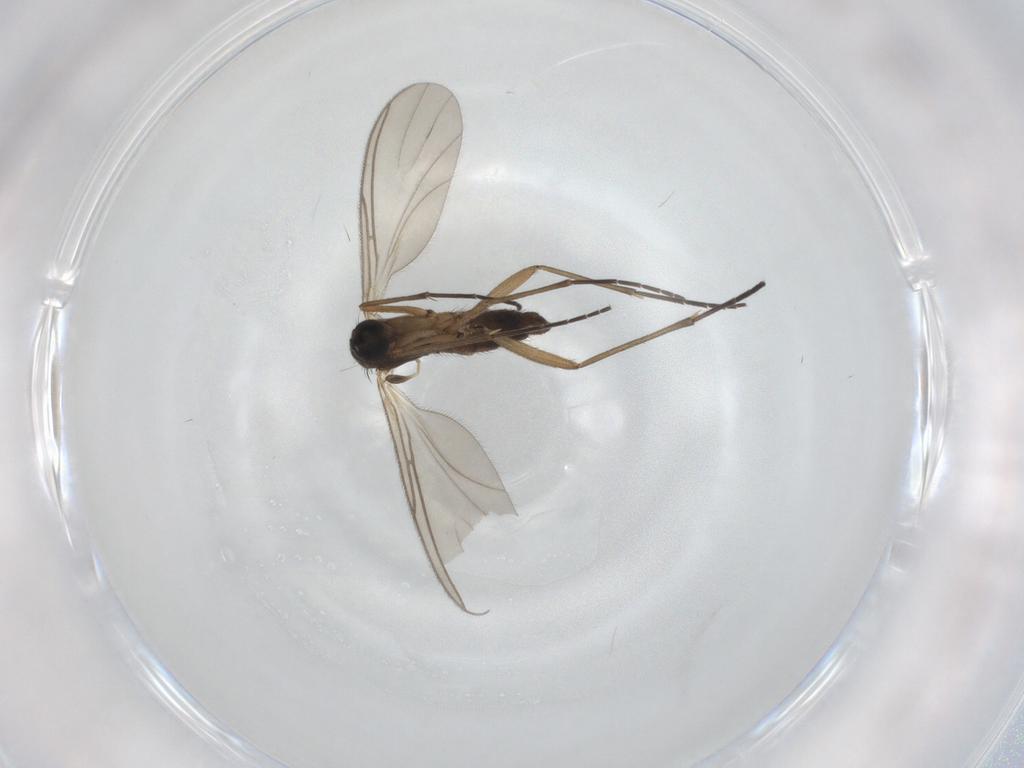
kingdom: Animalia
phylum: Arthropoda
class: Insecta
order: Diptera
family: Sciaridae
